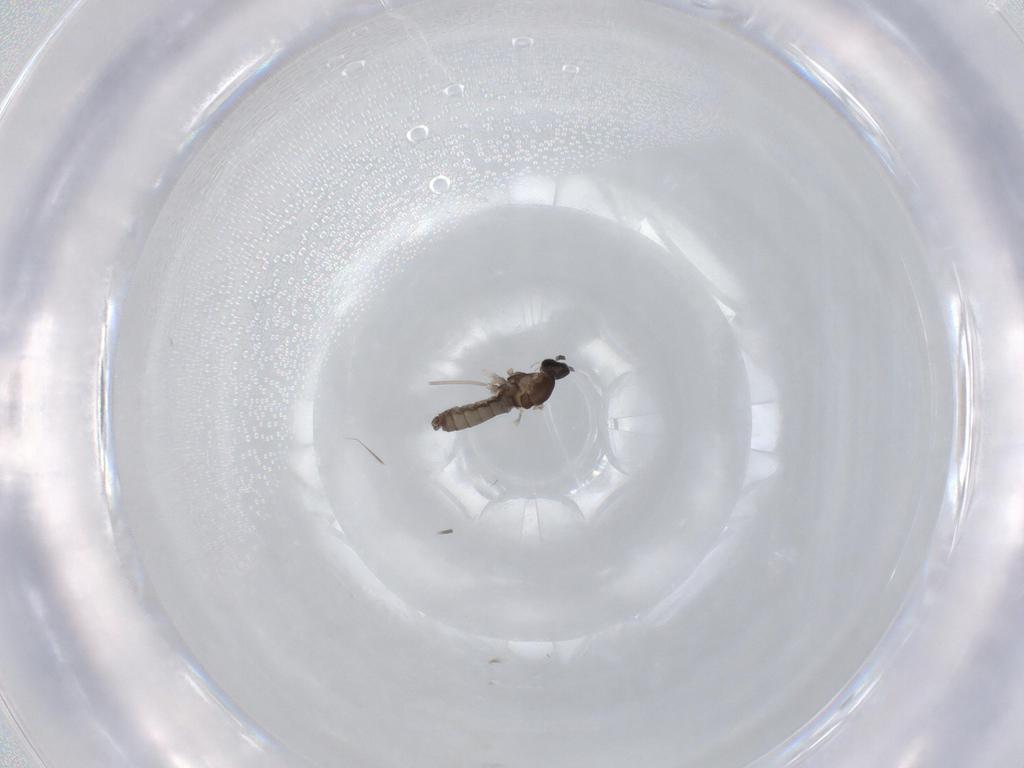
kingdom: Animalia
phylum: Arthropoda
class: Insecta
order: Diptera
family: Cecidomyiidae
